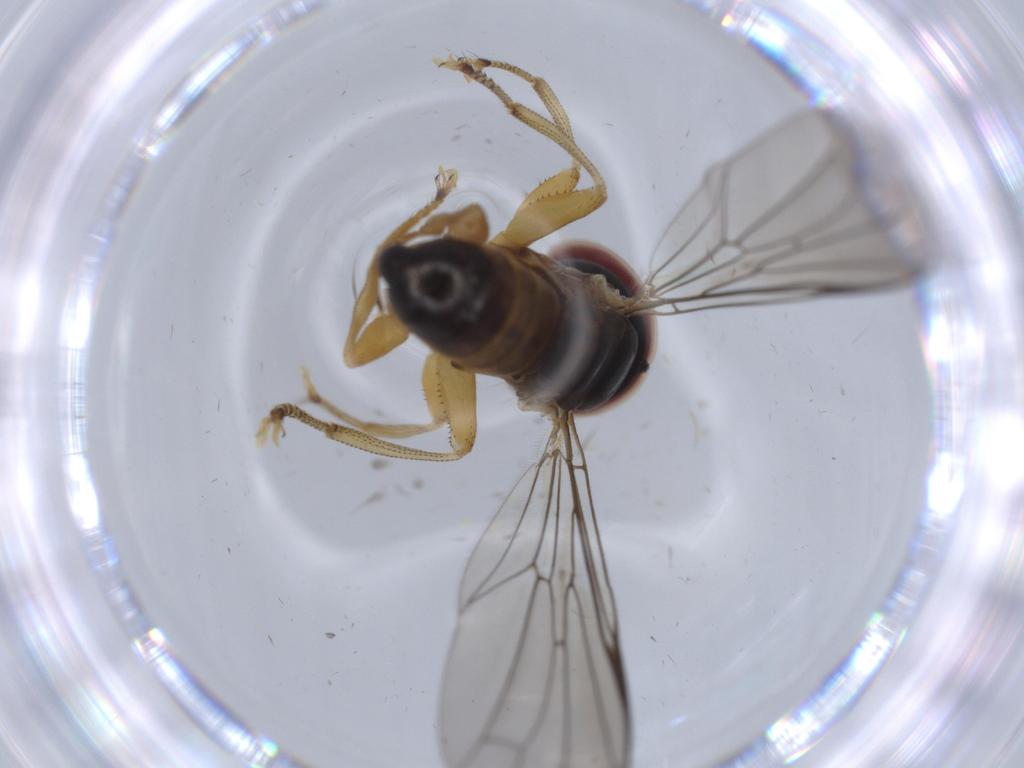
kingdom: Animalia
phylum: Arthropoda
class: Insecta
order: Diptera
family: Pipunculidae
